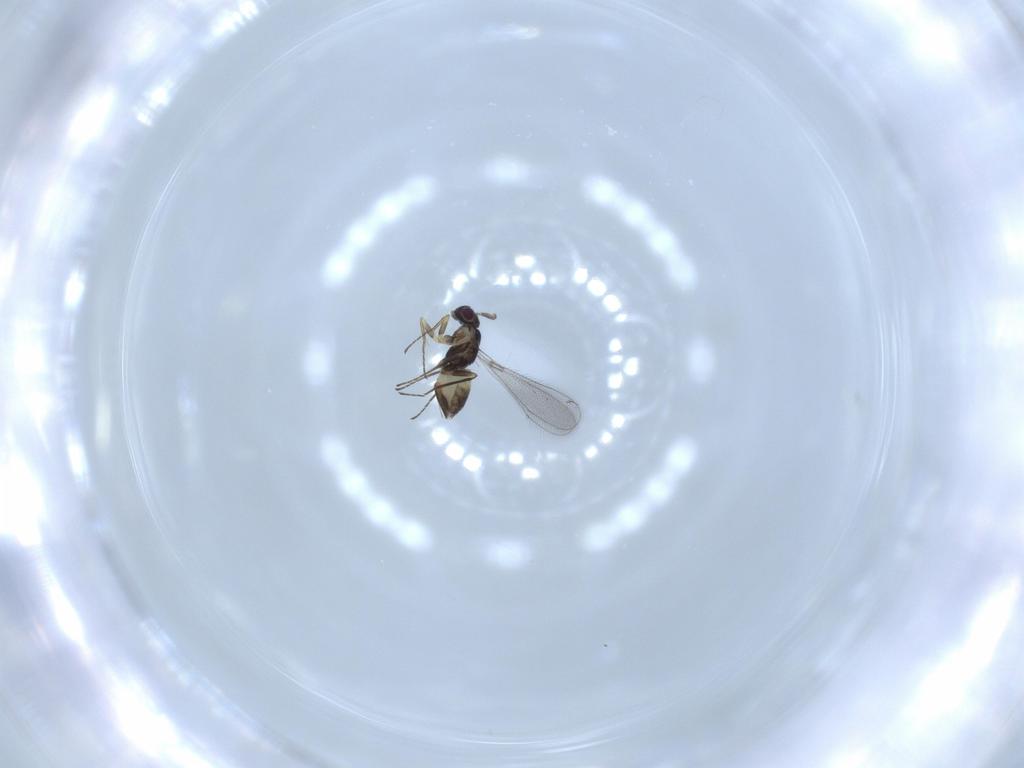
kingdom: Animalia
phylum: Arthropoda
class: Insecta
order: Hymenoptera
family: Mymaridae
